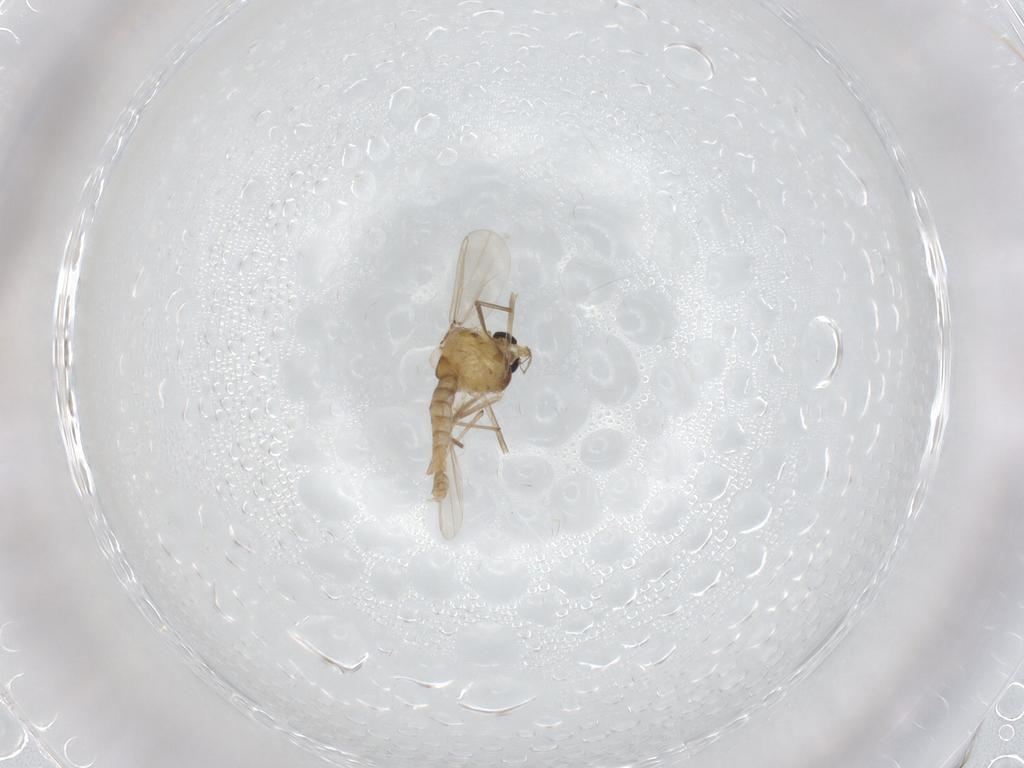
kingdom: Animalia
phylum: Arthropoda
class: Insecta
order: Diptera
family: Chironomidae
